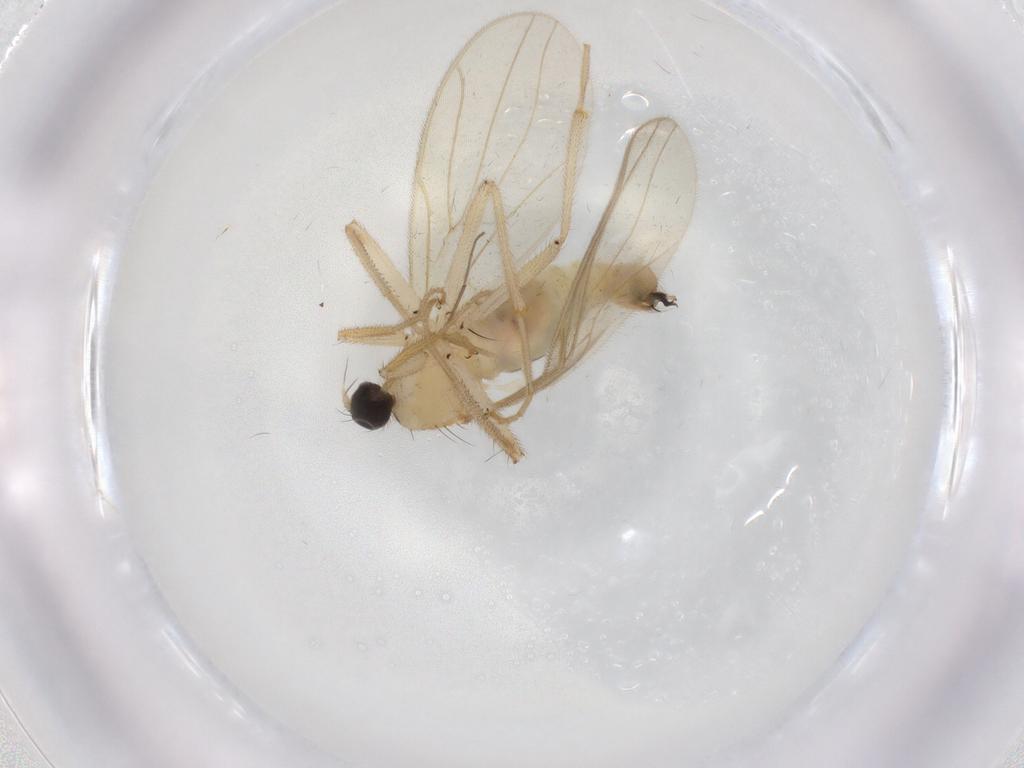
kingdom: Animalia
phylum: Arthropoda
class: Insecta
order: Diptera
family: Hybotidae
